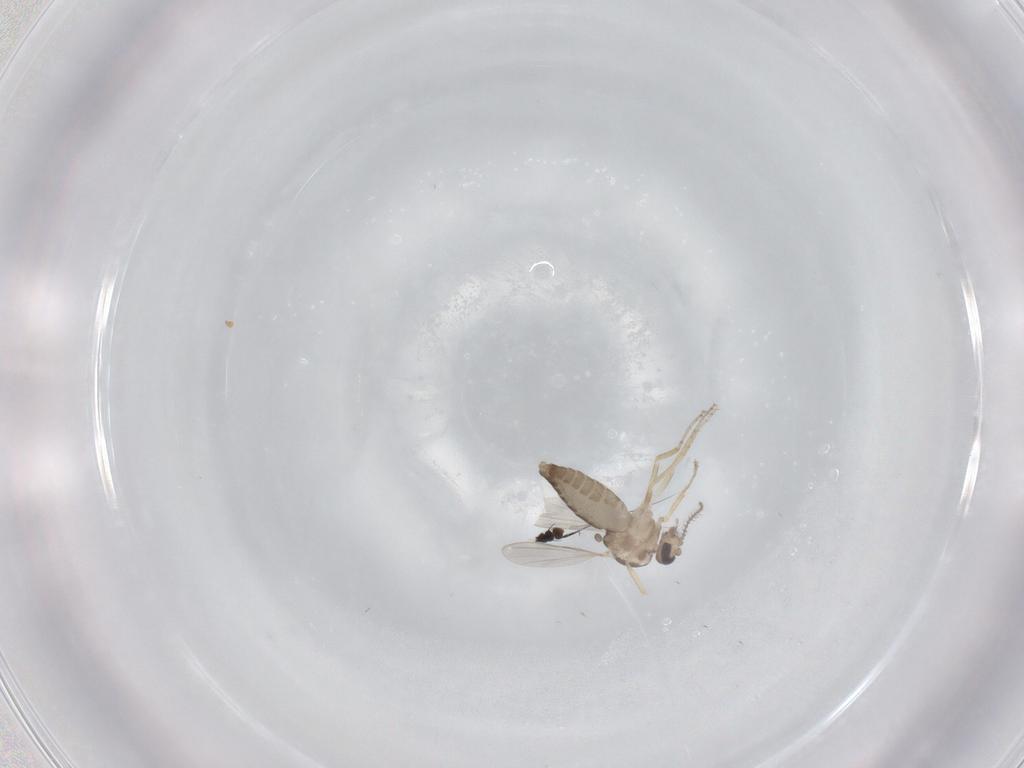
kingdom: Animalia
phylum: Arthropoda
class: Insecta
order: Diptera
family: Ceratopogonidae
